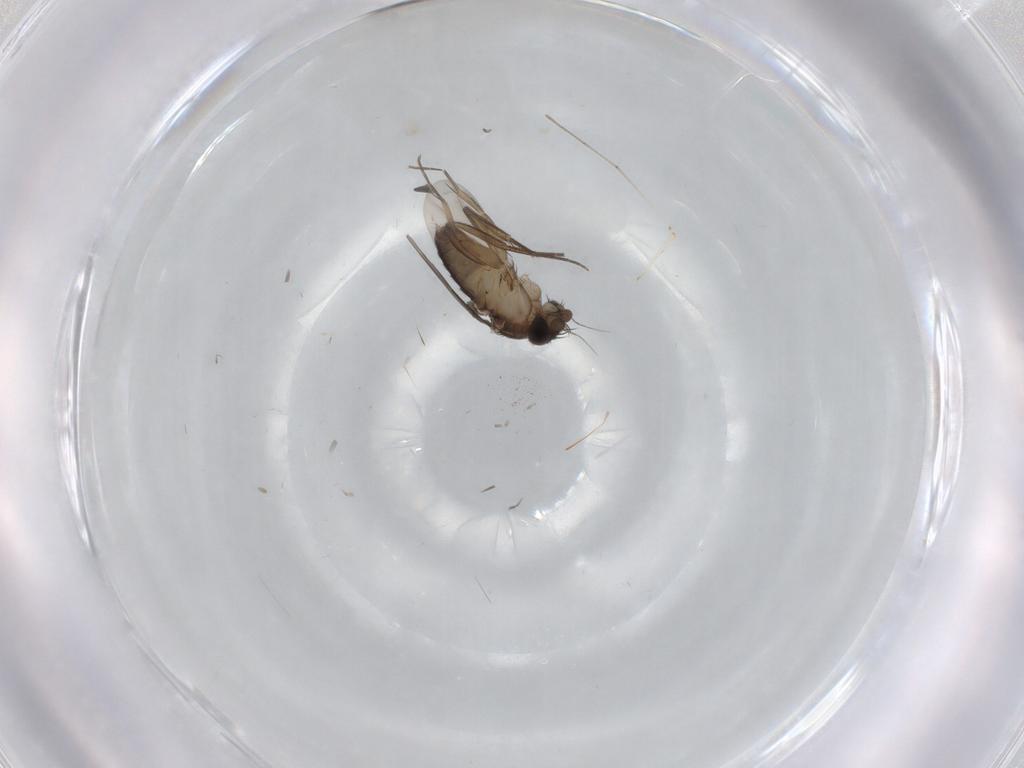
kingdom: Animalia
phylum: Arthropoda
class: Insecta
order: Diptera
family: Phoridae
